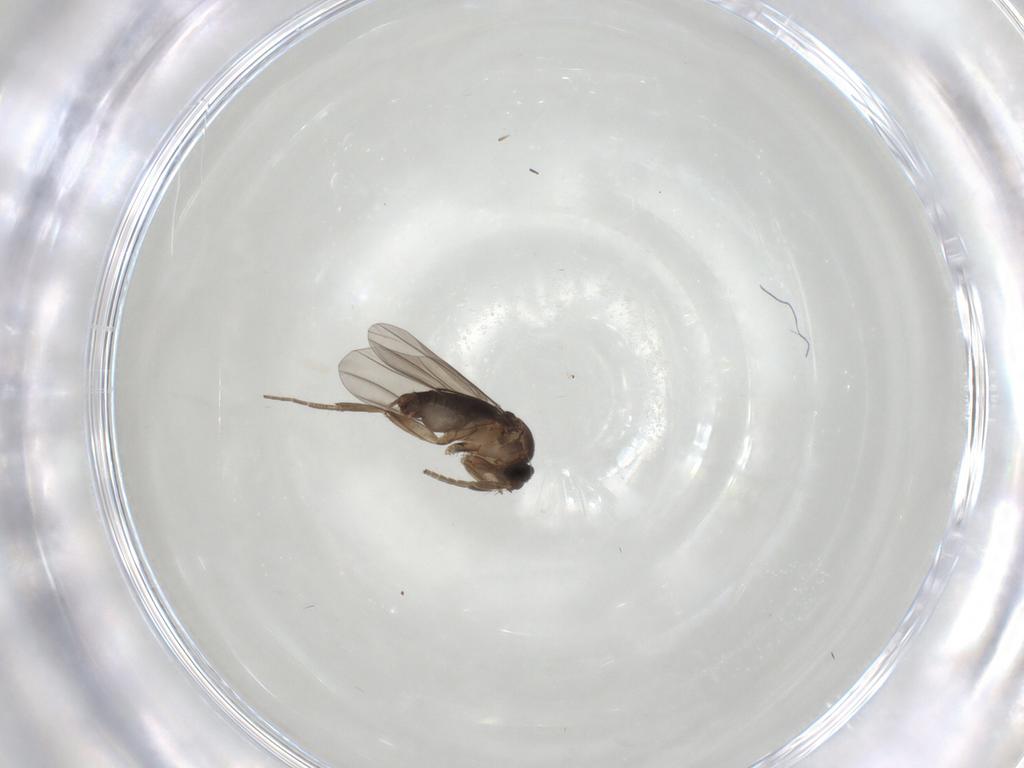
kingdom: Animalia
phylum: Arthropoda
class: Insecta
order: Diptera
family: Phoridae
